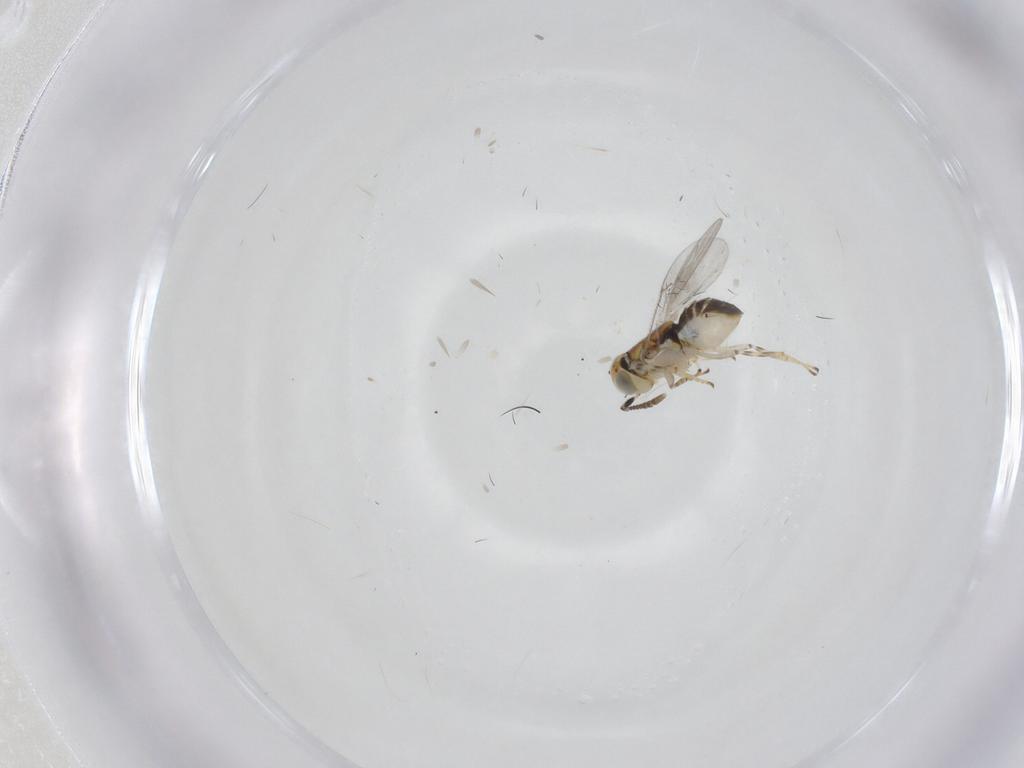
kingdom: Animalia
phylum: Arthropoda
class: Insecta
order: Hymenoptera
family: Encyrtidae
